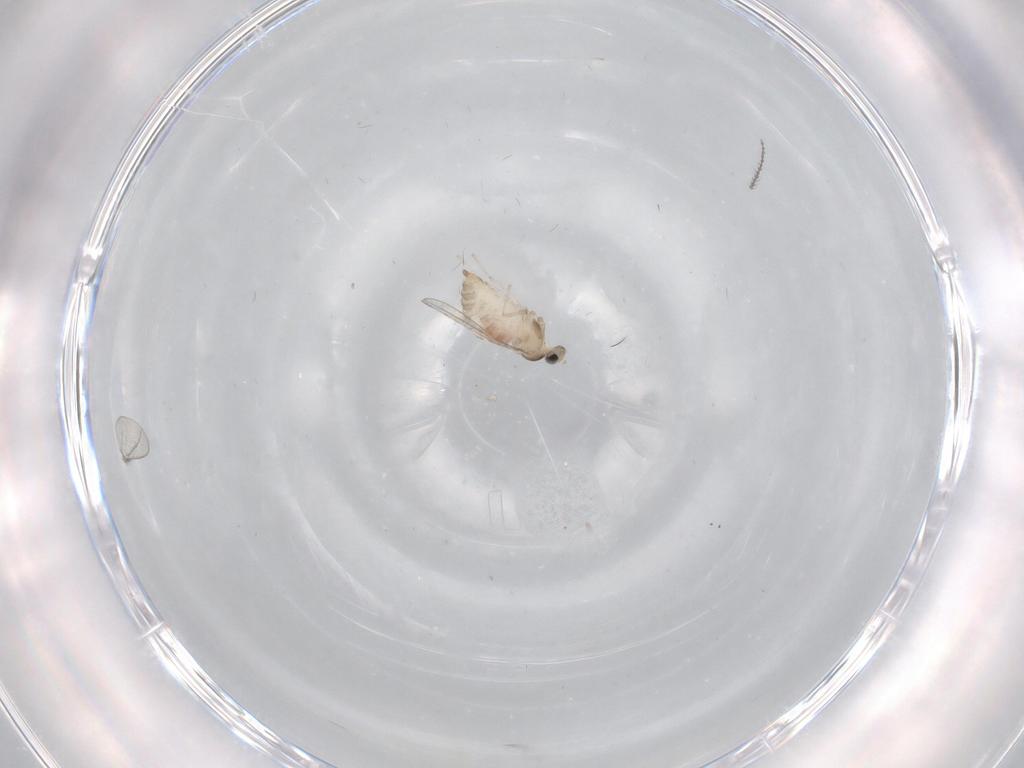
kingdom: Animalia
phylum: Arthropoda
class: Insecta
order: Diptera
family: Cecidomyiidae
